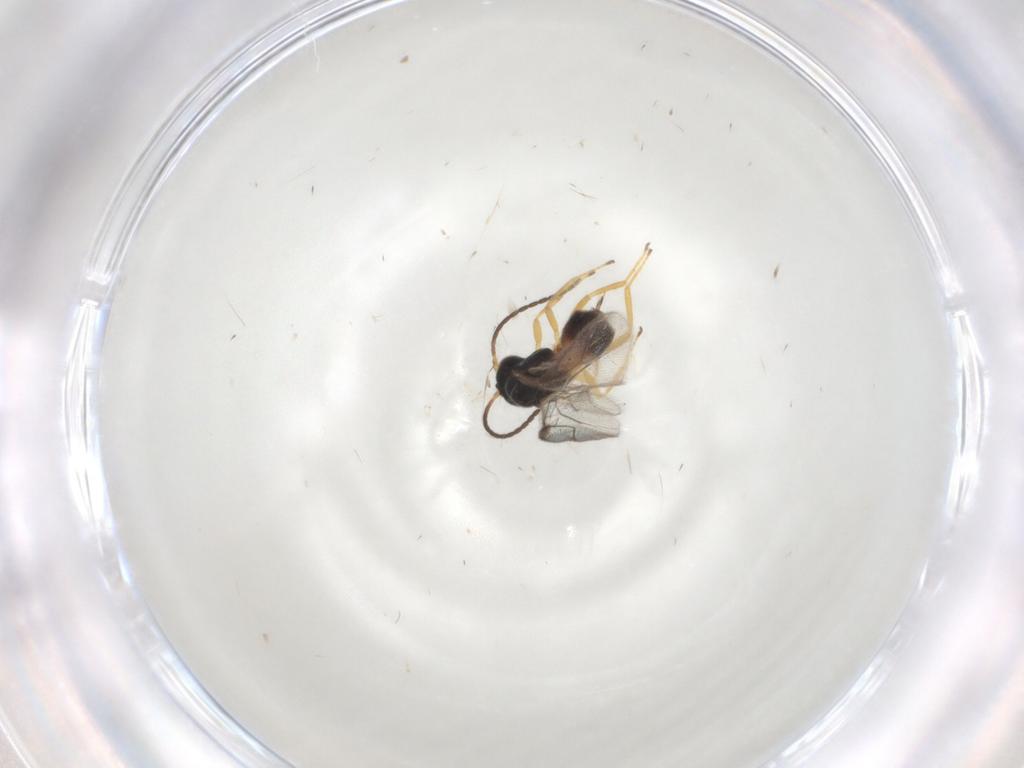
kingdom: Animalia
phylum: Arthropoda
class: Insecta
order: Hymenoptera
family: Braconidae
